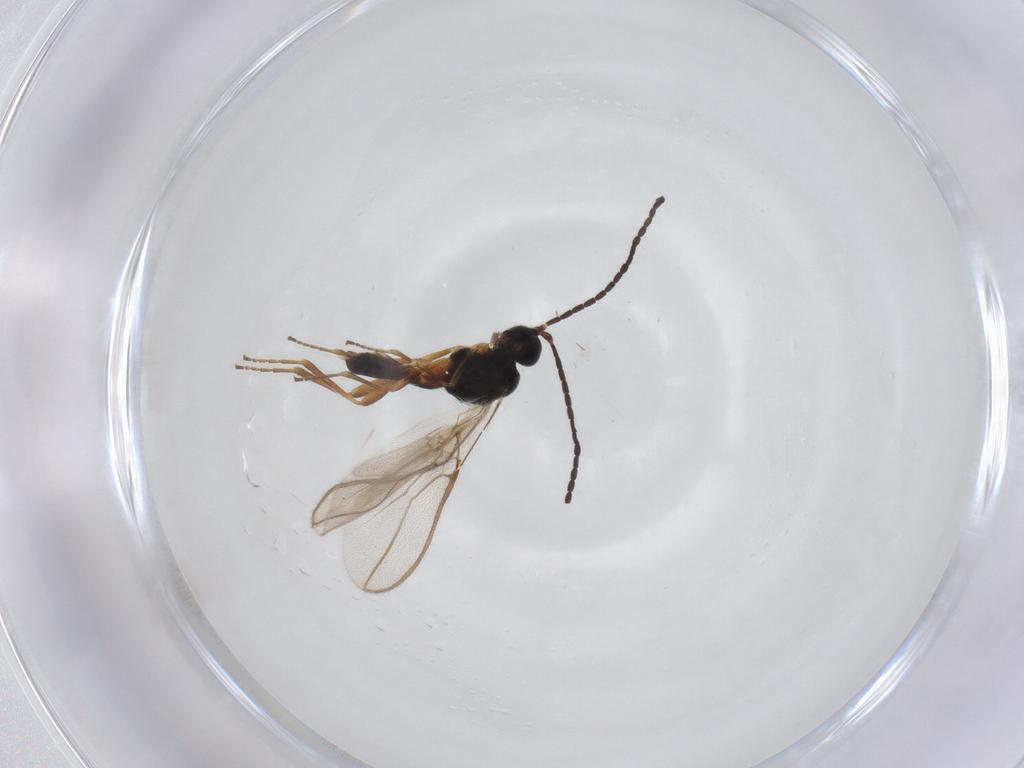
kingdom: Animalia
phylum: Arthropoda
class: Insecta
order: Hymenoptera
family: Braconidae
